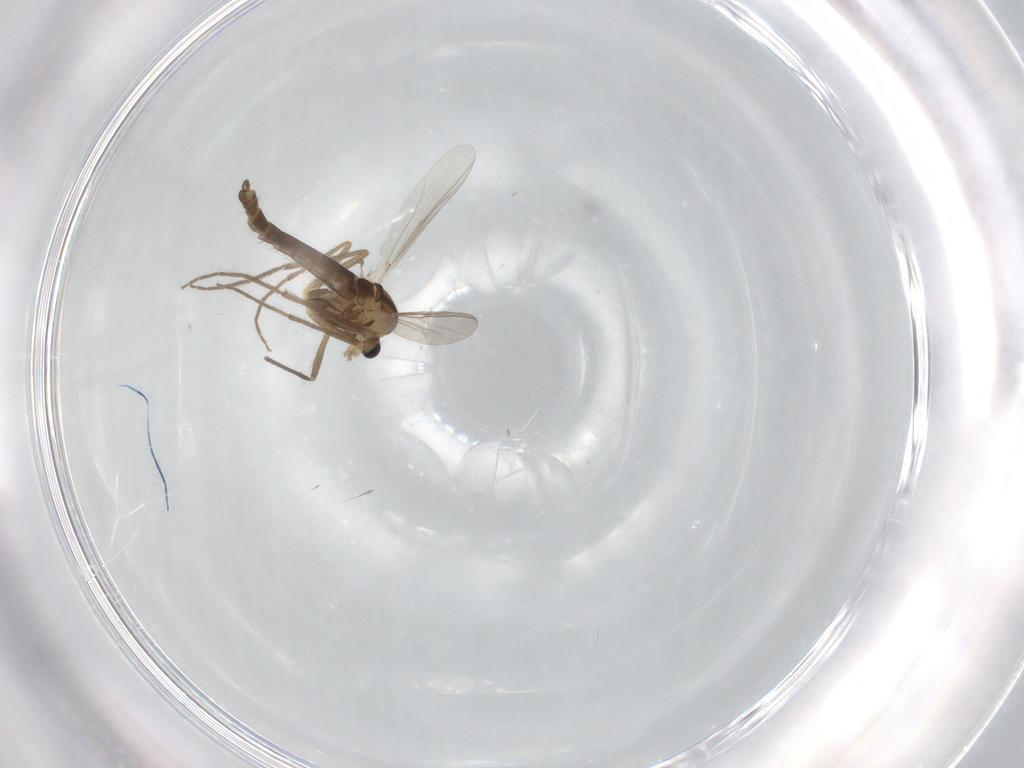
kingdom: Animalia
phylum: Arthropoda
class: Insecta
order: Diptera
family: Chironomidae
